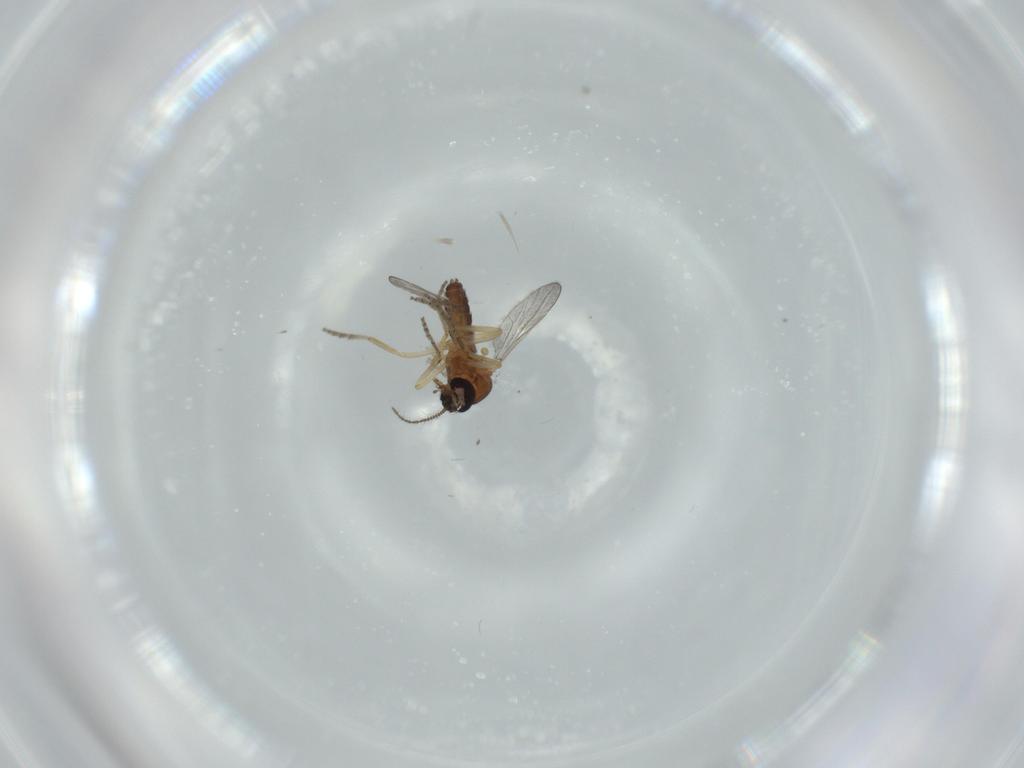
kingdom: Animalia
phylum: Arthropoda
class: Insecta
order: Diptera
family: Ceratopogonidae
